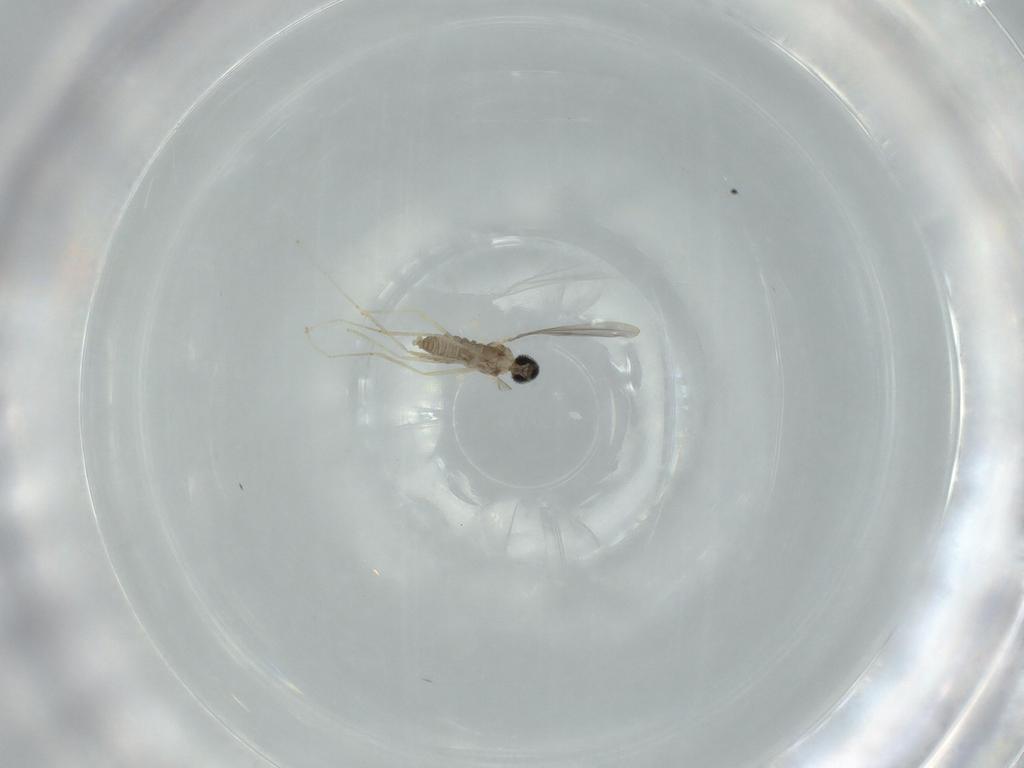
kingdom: Animalia
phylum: Arthropoda
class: Insecta
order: Diptera
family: Cecidomyiidae
